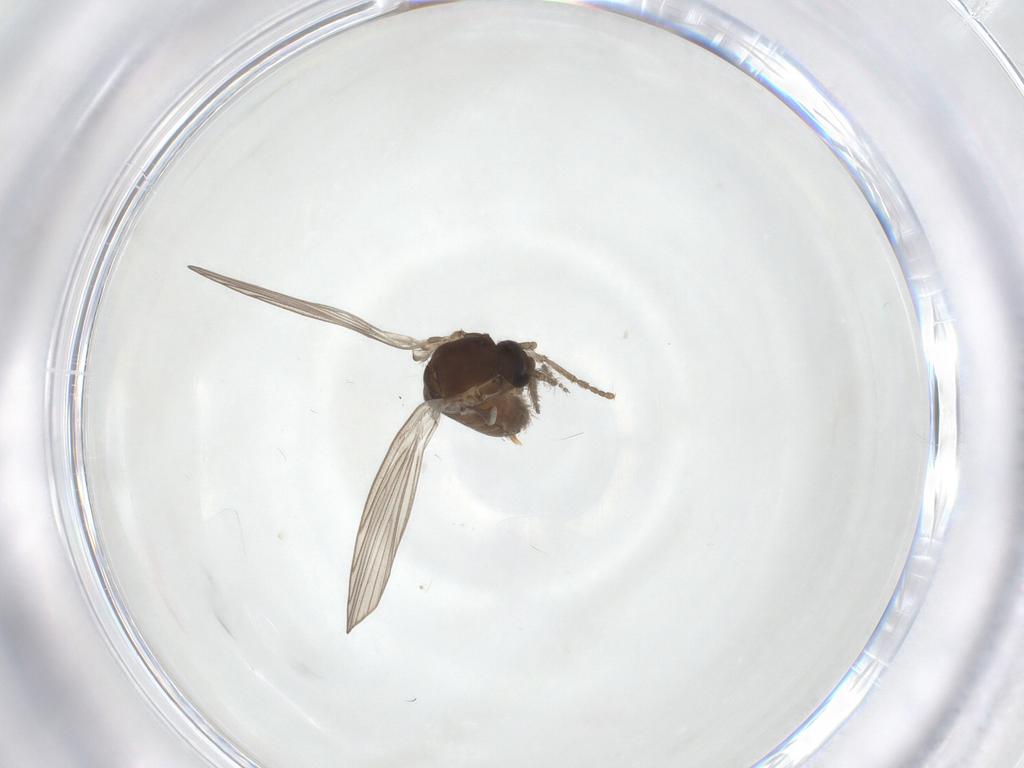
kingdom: Animalia
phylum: Arthropoda
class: Insecta
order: Diptera
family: Psychodidae
